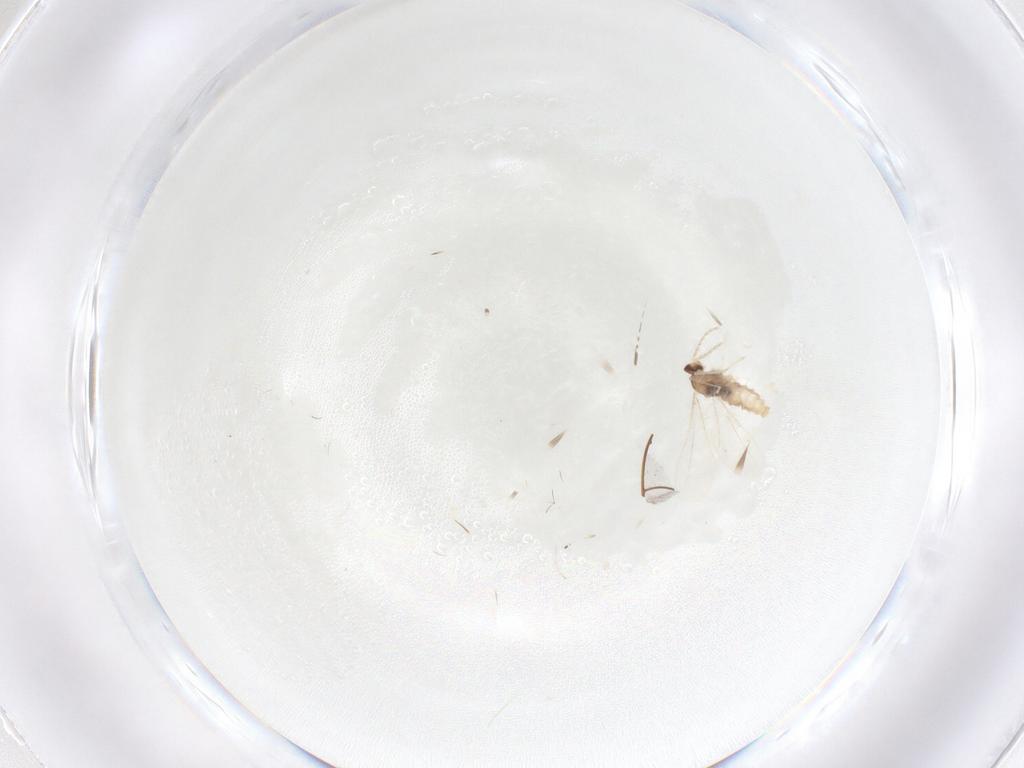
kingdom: Animalia
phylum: Arthropoda
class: Insecta
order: Diptera
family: Cecidomyiidae
